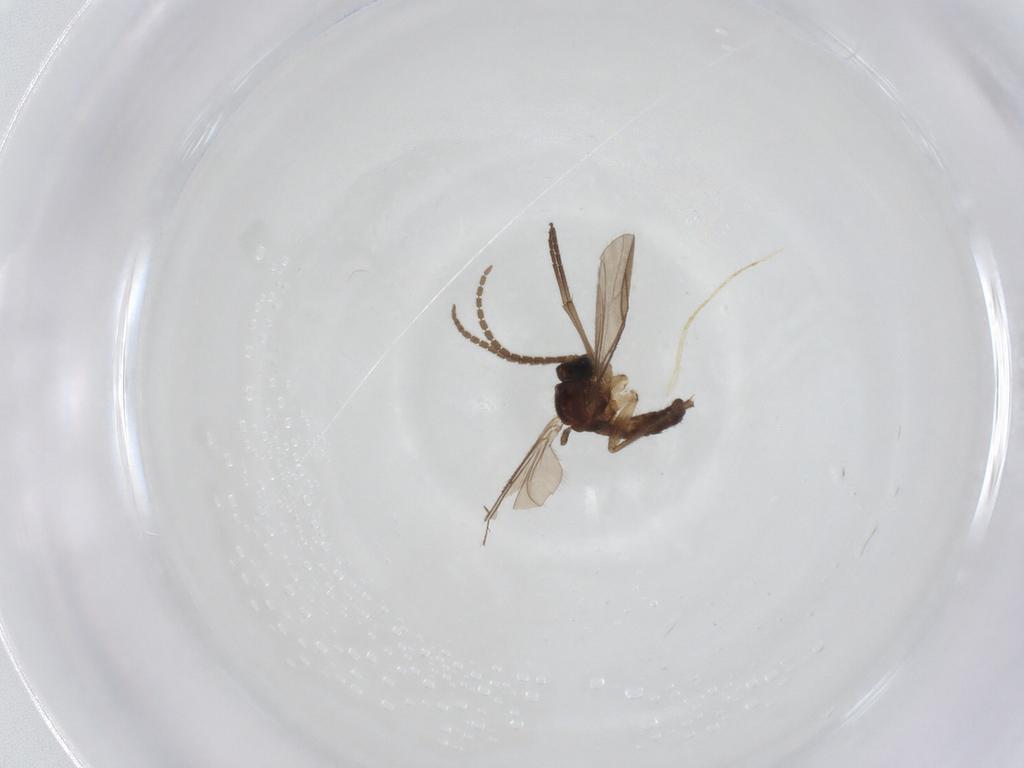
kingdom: Animalia
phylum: Arthropoda
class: Insecta
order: Diptera
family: Sciaridae
